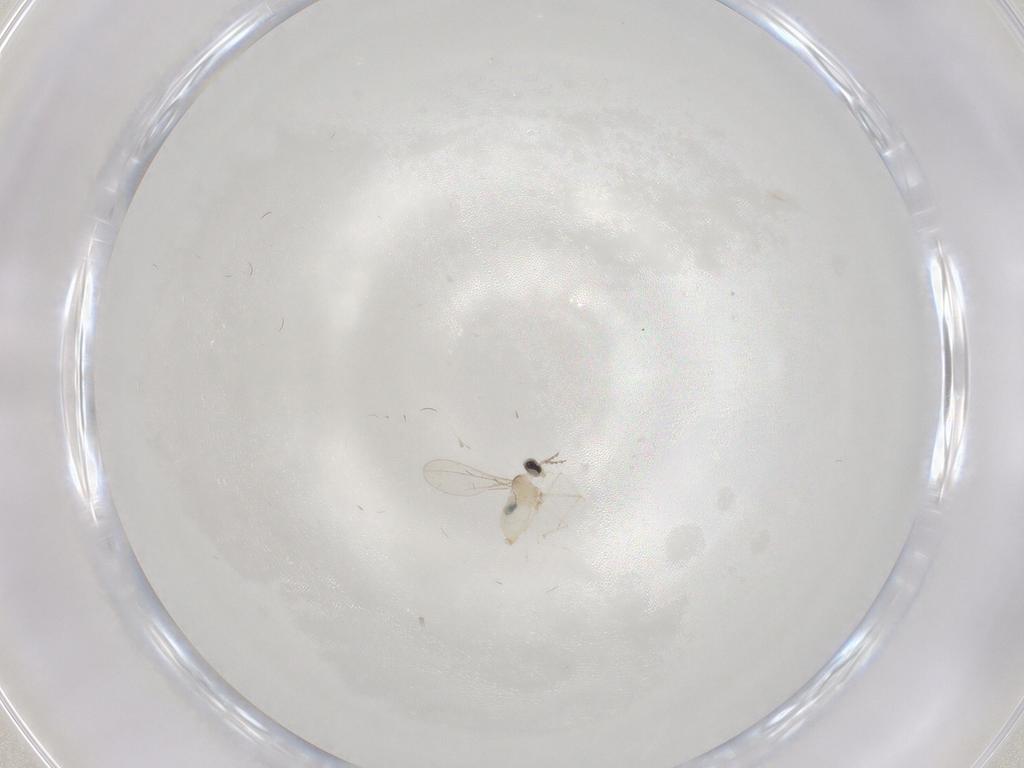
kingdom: Animalia
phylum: Arthropoda
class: Insecta
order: Diptera
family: Cecidomyiidae
